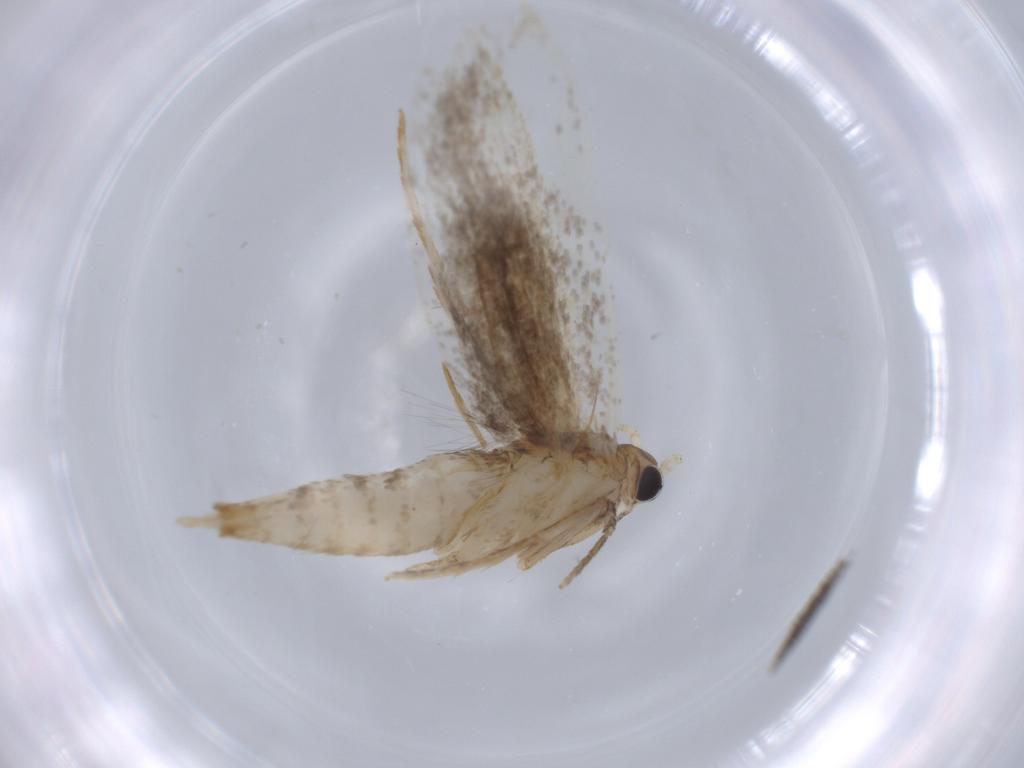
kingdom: Animalia
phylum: Arthropoda
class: Insecta
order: Lepidoptera
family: Tineidae
